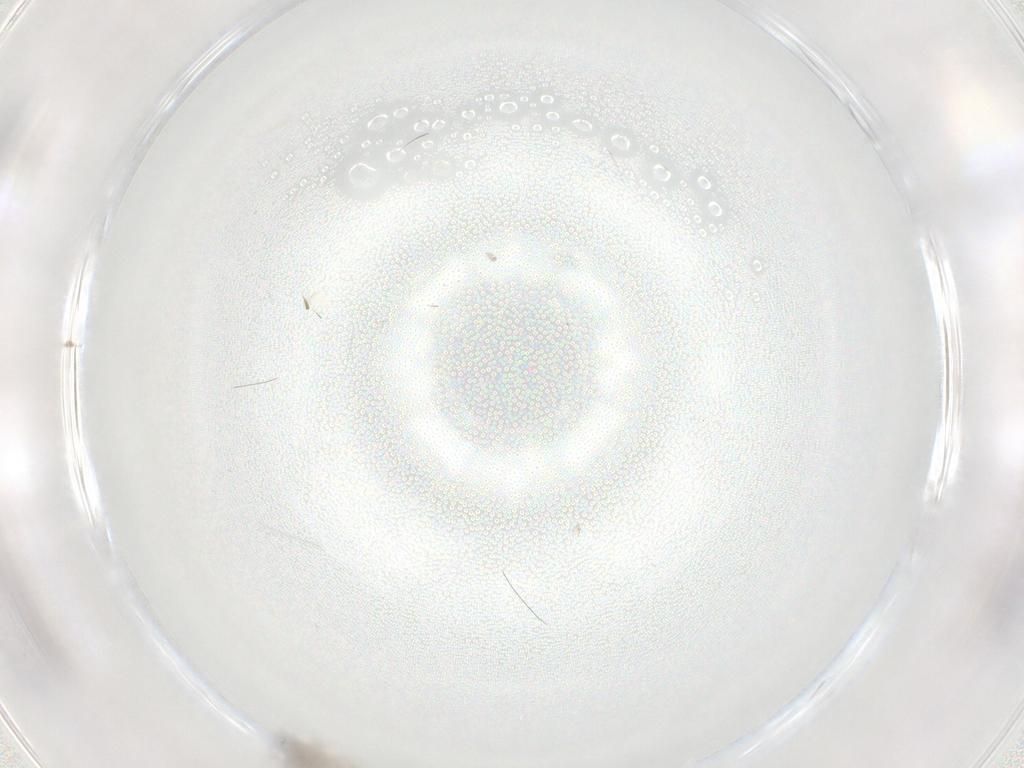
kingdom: Animalia
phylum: Arthropoda
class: Insecta
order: Diptera
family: Cecidomyiidae
